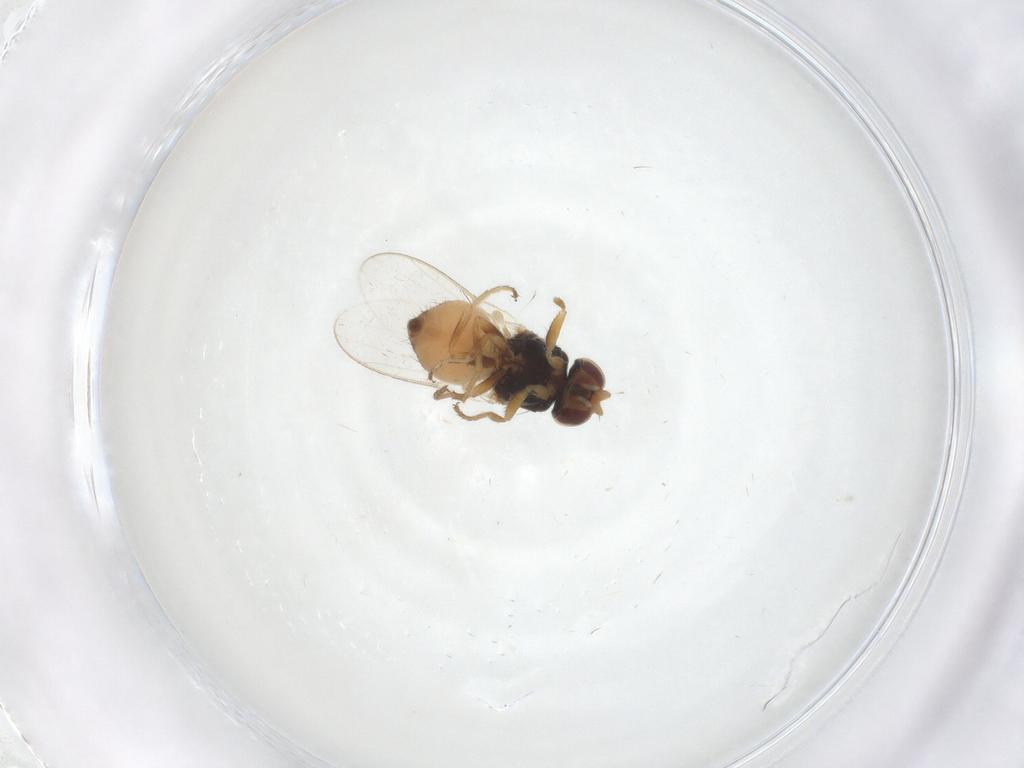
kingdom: Animalia
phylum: Arthropoda
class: Insecta
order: Diptera
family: Chloropidae
